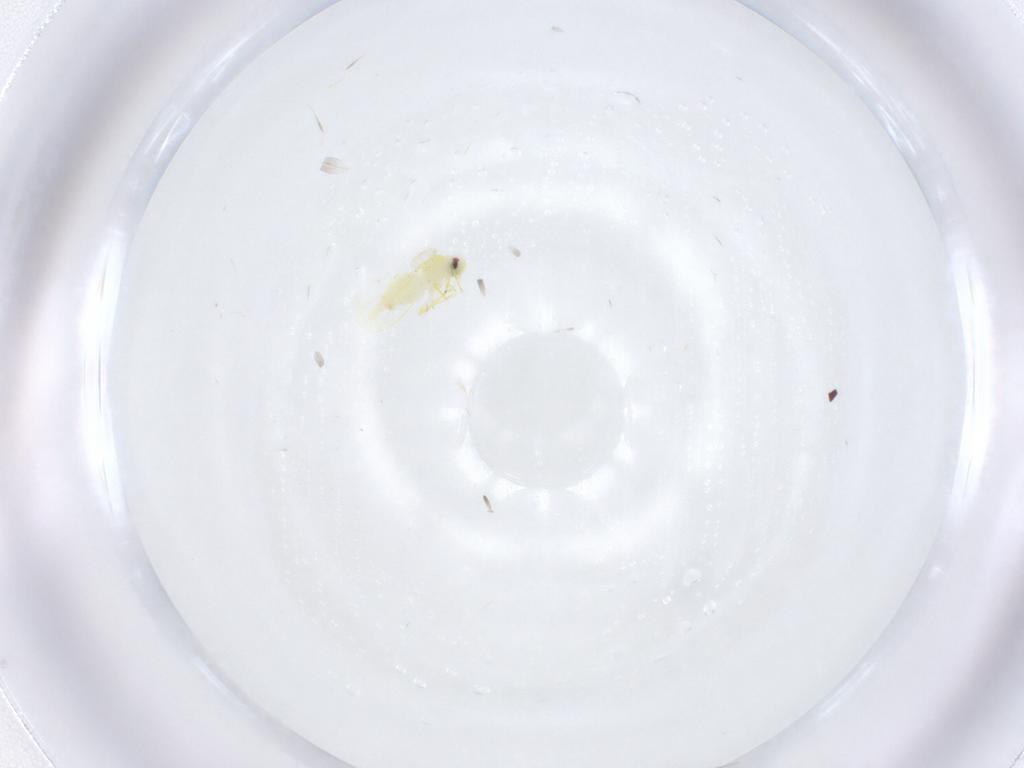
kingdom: Animalia
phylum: Arthropoda
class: Insecta
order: Hemiptera
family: Aleyrodidae
